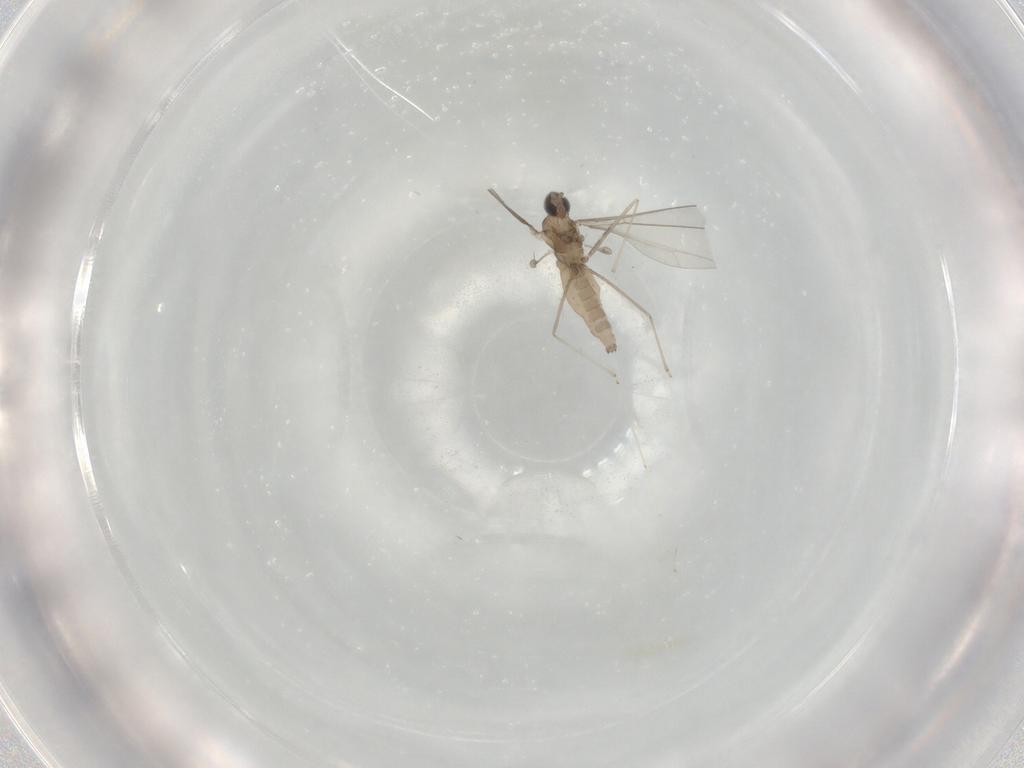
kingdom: Animalia
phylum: Arthropoda
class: Insecta
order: Diptera
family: Cecidomyiidae
